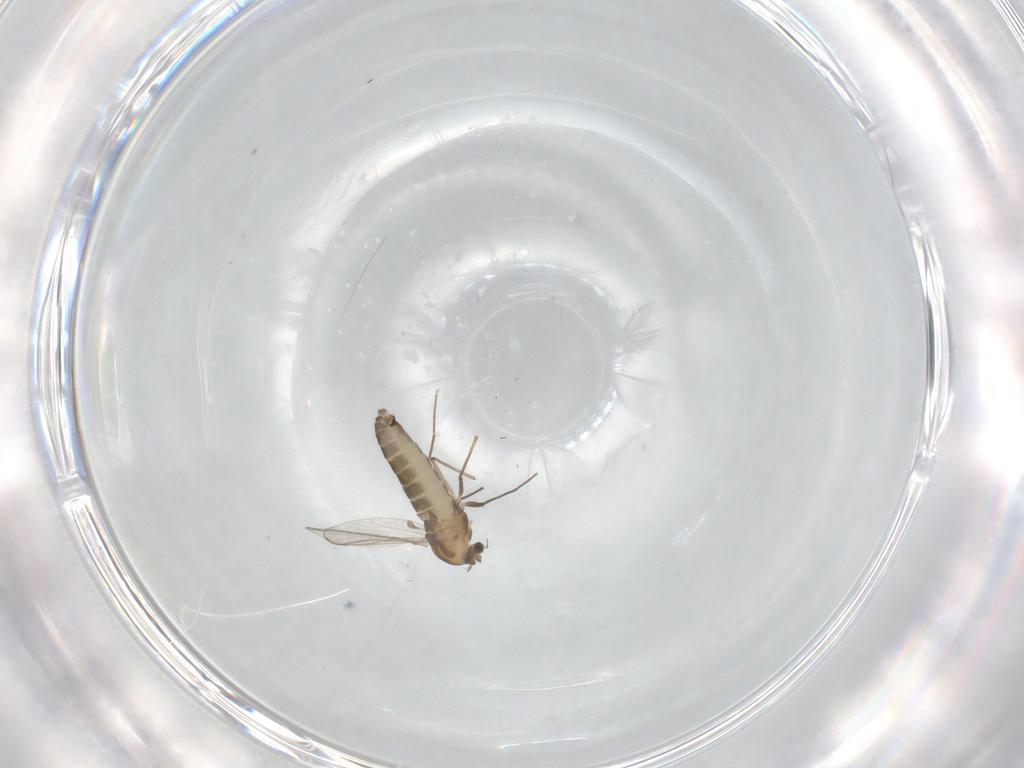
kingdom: Animalia
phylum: Arthropoda
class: Insecta
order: Diptera
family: Chironomidae
